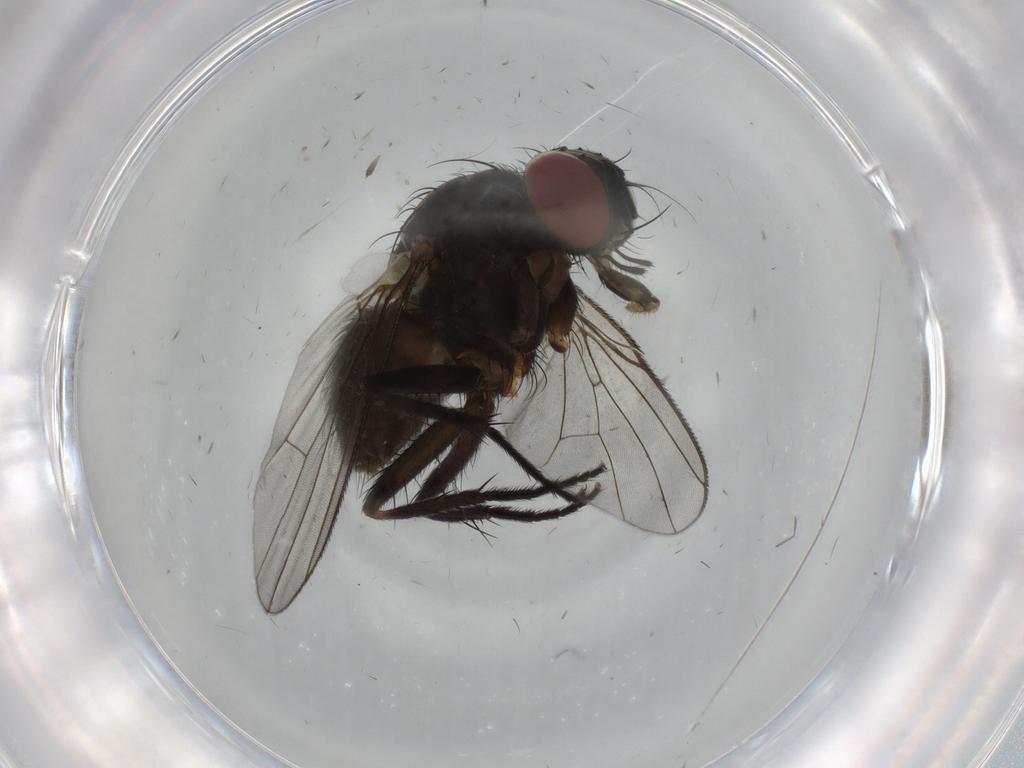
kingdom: Animalia
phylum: Arthropoda
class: Insecta
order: Diptera
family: Muscidae
